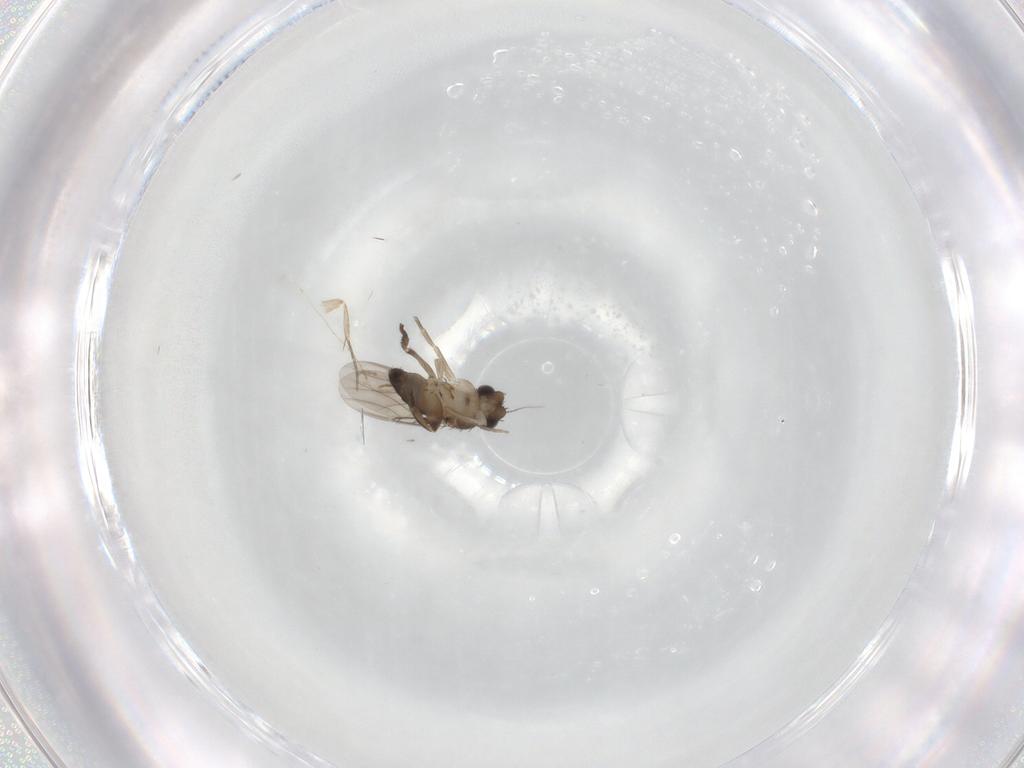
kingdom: Animalia
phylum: Arthropoda
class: Insecta
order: Diptera
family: Phoridae
